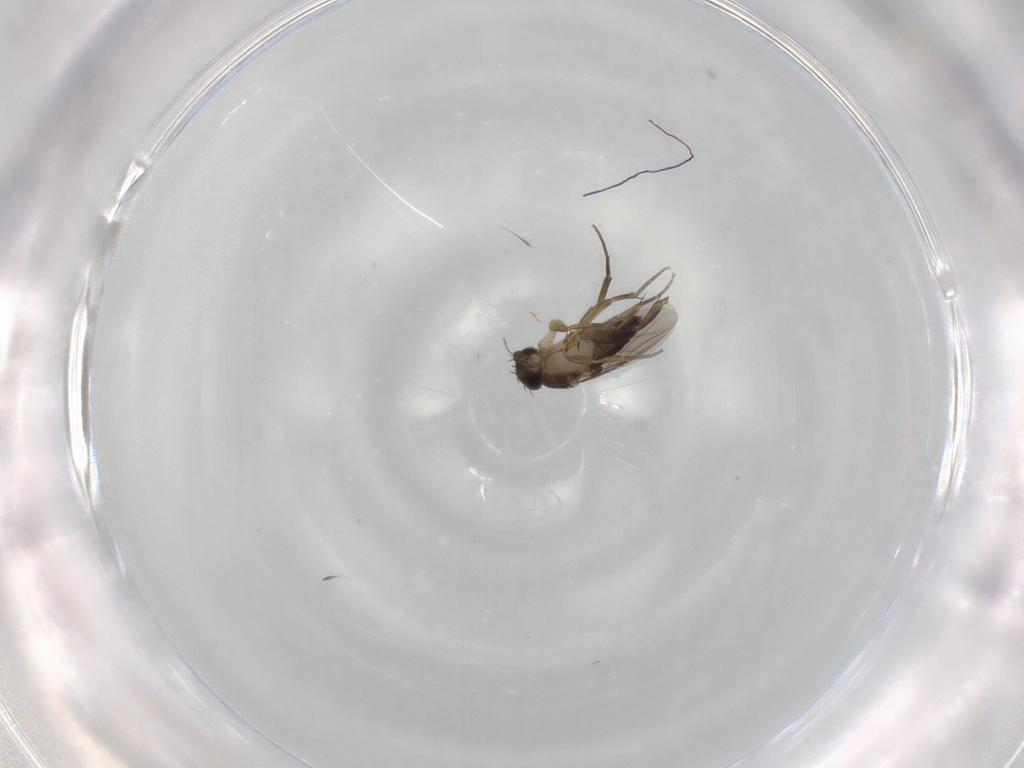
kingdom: Animalia
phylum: Arthropoda
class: Insecta
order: Diptera
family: Phoridae
